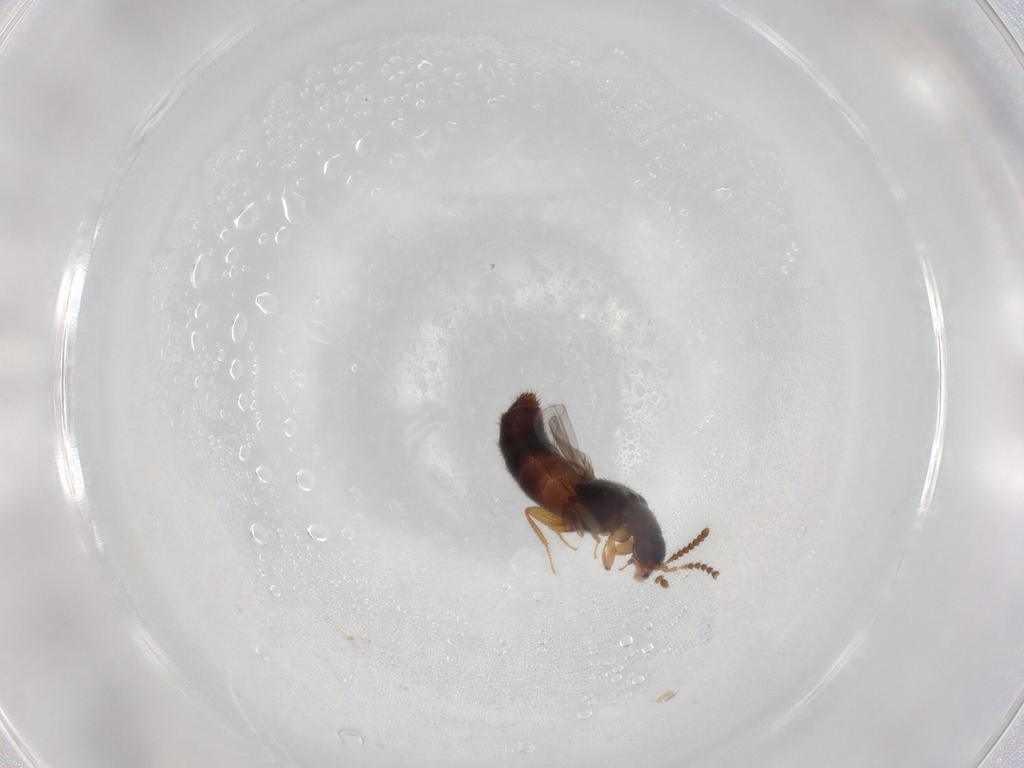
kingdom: Animalia
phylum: Arthropoda
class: Insecta
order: Coleoptera
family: Staphylinidae
